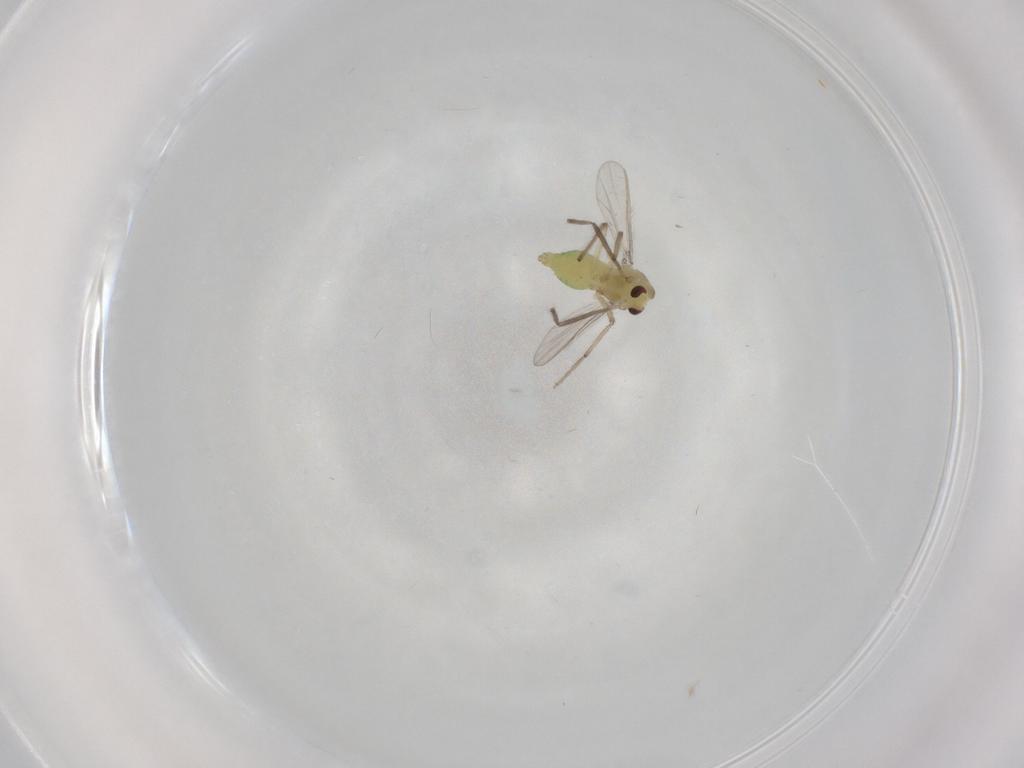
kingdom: Animalia
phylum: Arthropoda
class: Insecta
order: Diptera
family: Chironomidae
